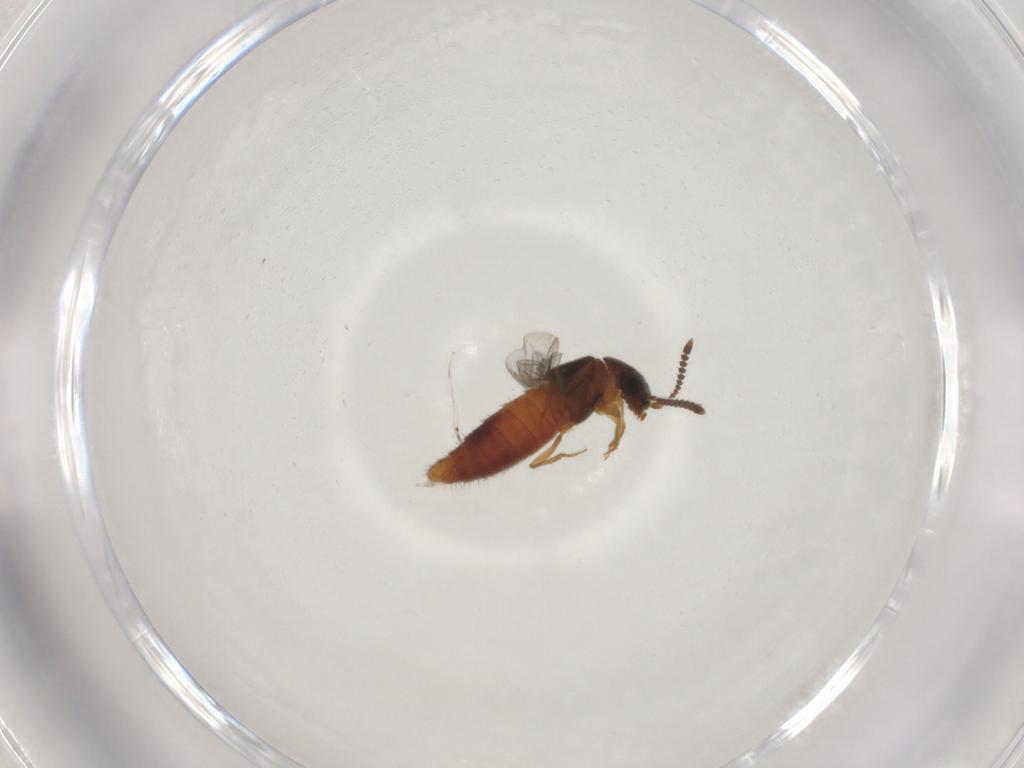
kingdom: Animalia
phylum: Arthropoda
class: Insecta
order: Coleoptera
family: Staphylinidae
